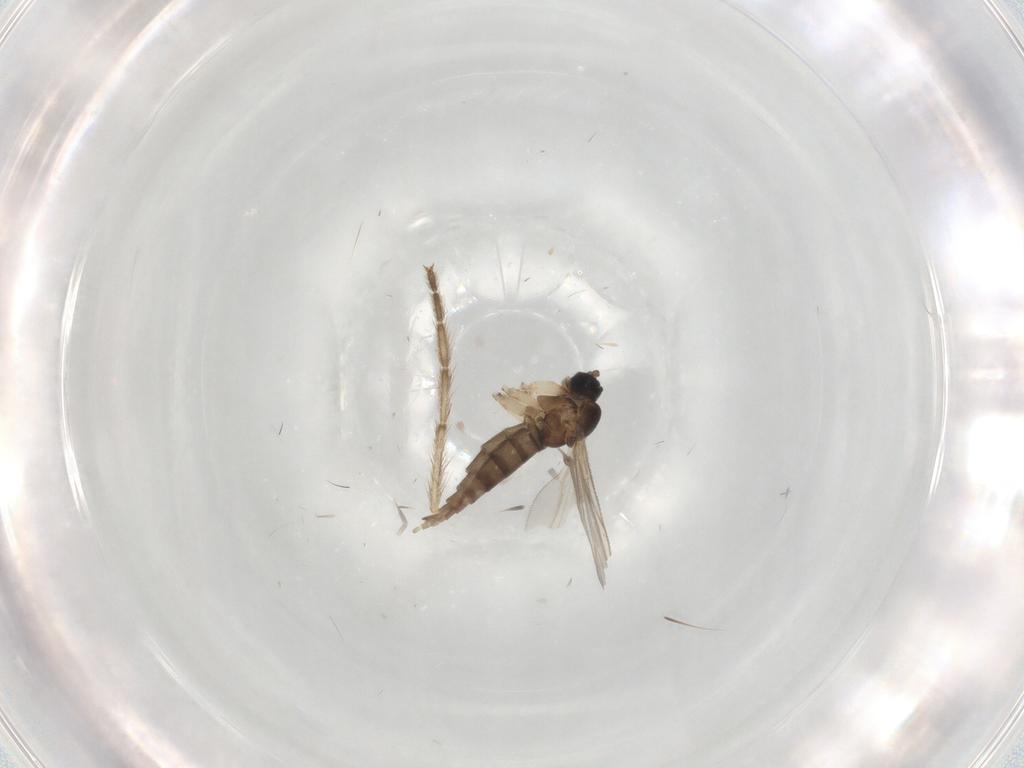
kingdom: Animalia
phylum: Arthropoda
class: Insecta
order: Diptera
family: Sciaridae
